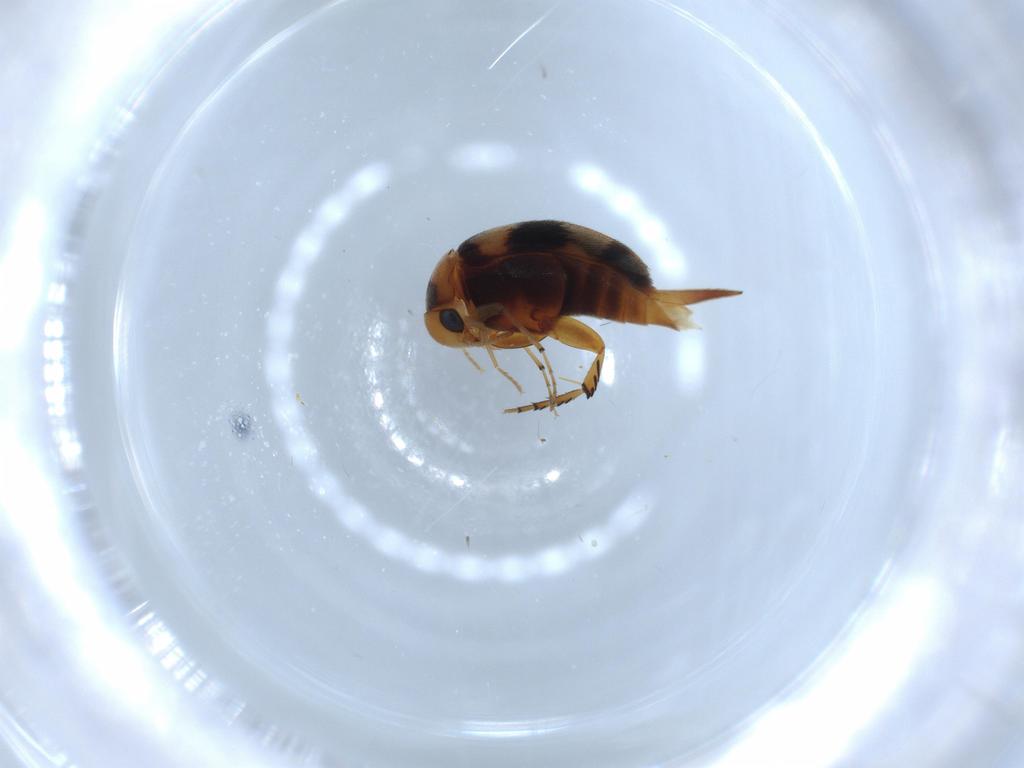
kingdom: Animalia
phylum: Arthropoda
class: Insecta
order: Coleoptera
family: Mordellidae
